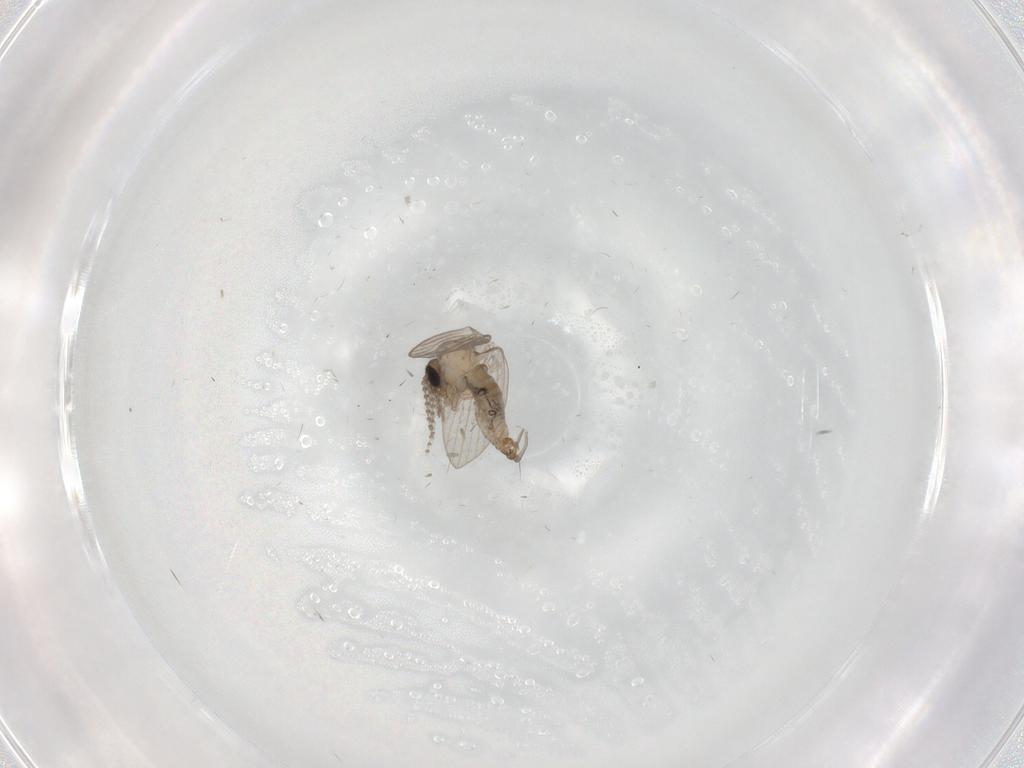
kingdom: Animalia
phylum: Arthropoda
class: Insecta
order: Diptera
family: Psychodidae
